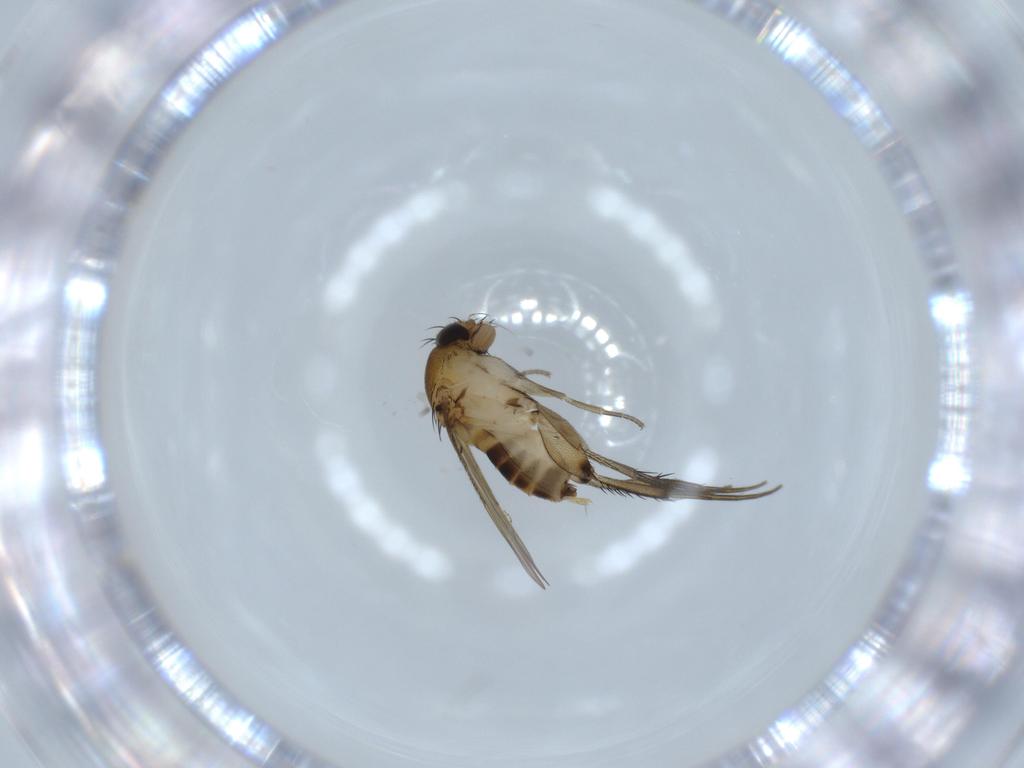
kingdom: Animalia
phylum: Arthropoda
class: Insecta
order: Diptera
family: Phoridae
